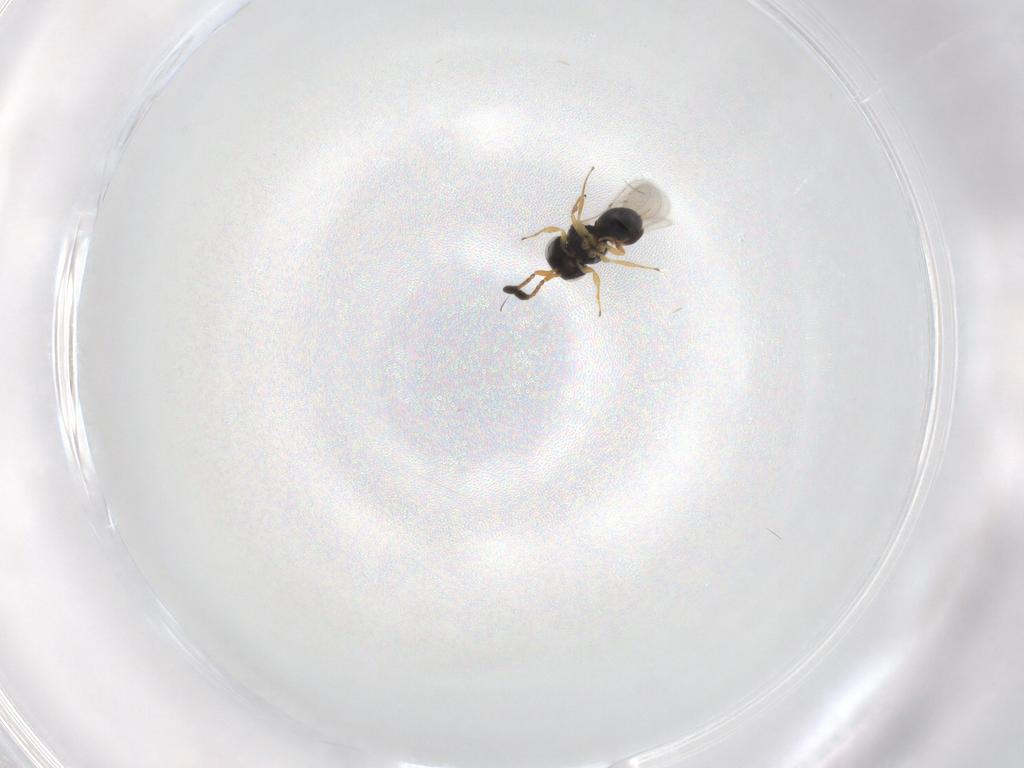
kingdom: Animalia
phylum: Arthropoda
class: Insecta
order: Hymenoptera
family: Scelionidae
